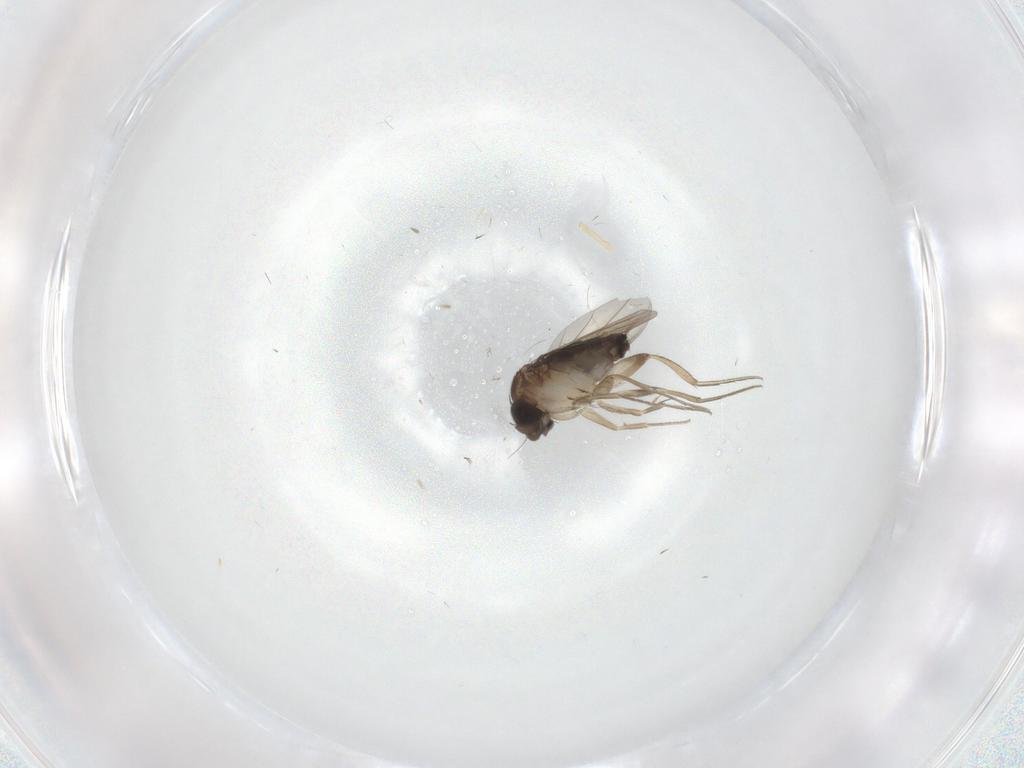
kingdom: Animalia
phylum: Arthropoda
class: Insecta
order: Diptera
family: Phoridae
